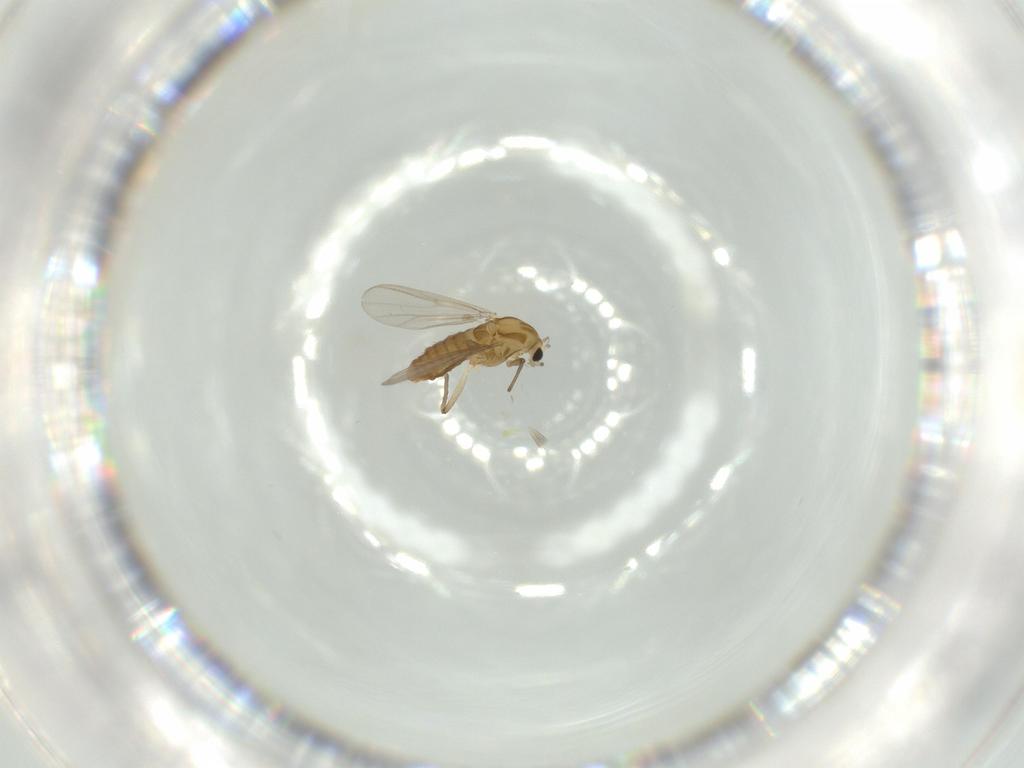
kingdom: Animalia
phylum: Arthropoda
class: Insecta
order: Diptera
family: Chironomidae
